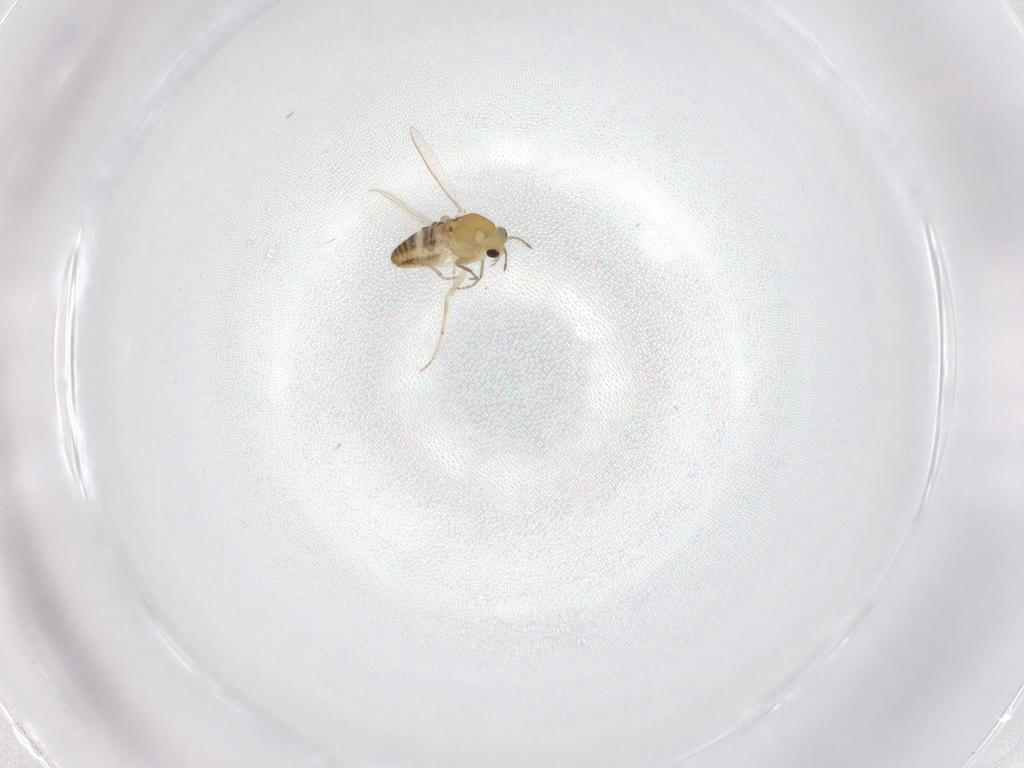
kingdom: Animalia
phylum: Arthropoda
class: Insecta
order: Diptera
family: Chironomidae
